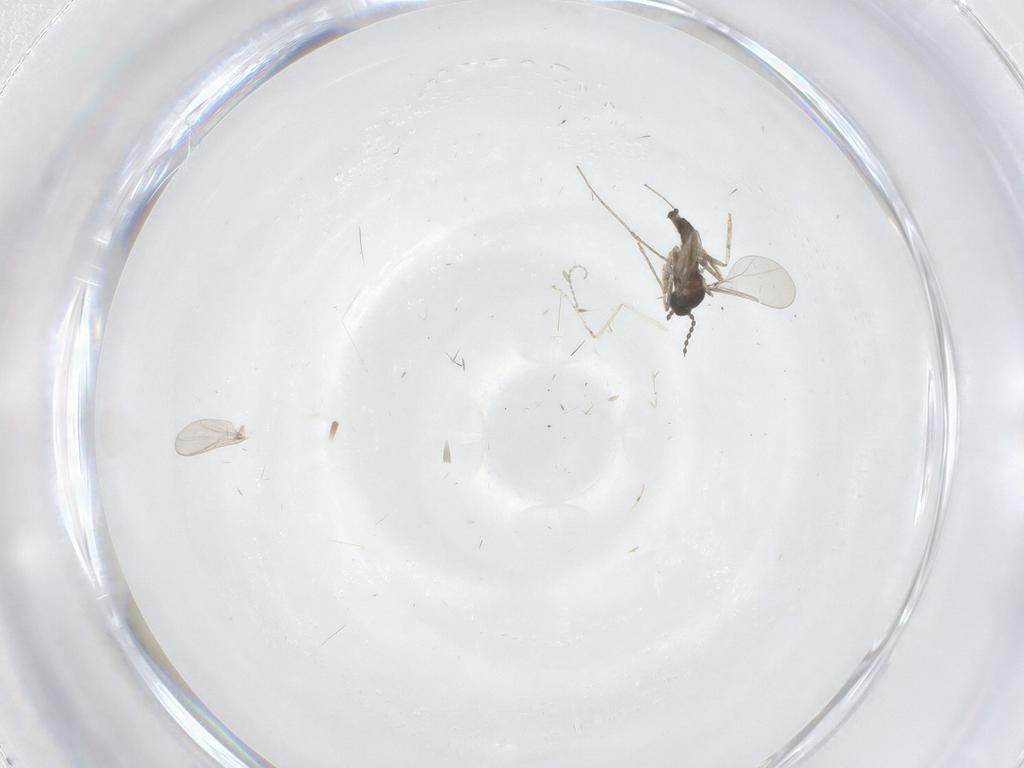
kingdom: Animalia
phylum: Arthropoda
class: Insecta
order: Diptera
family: Cecidomyiidae
